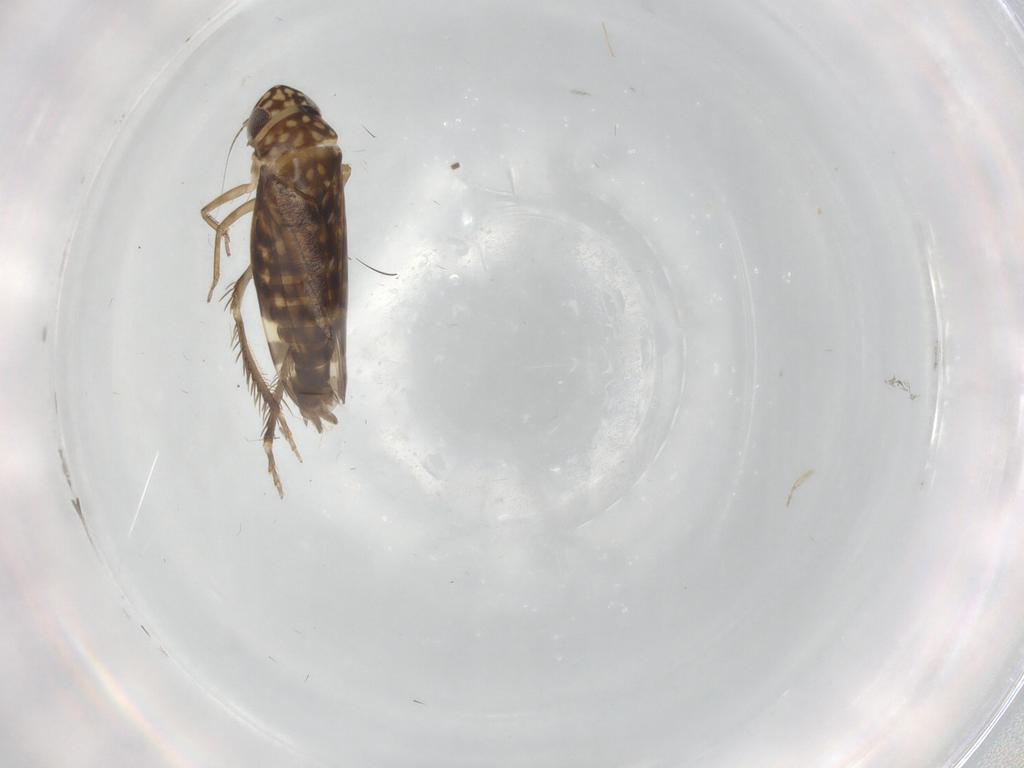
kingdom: Animalia
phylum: Arthropoda
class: Insecta
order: Hemiptera
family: Cicadellidae
